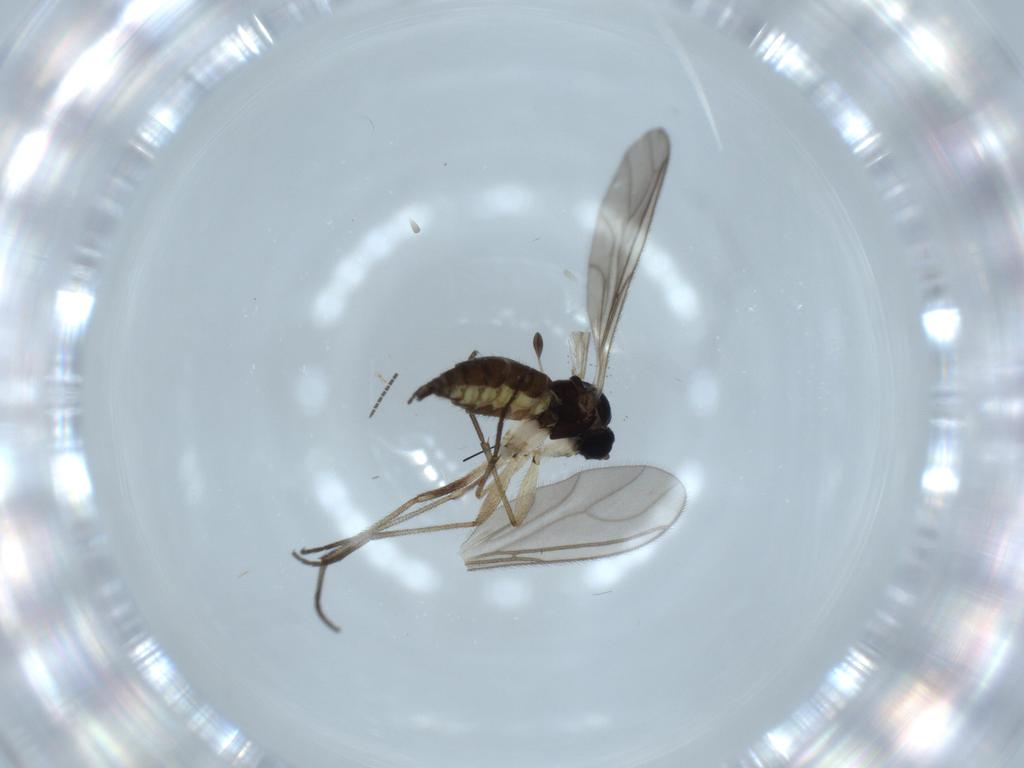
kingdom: Animalia
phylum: Arthropoda
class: Insecta
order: Diptera
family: Sciaridae
